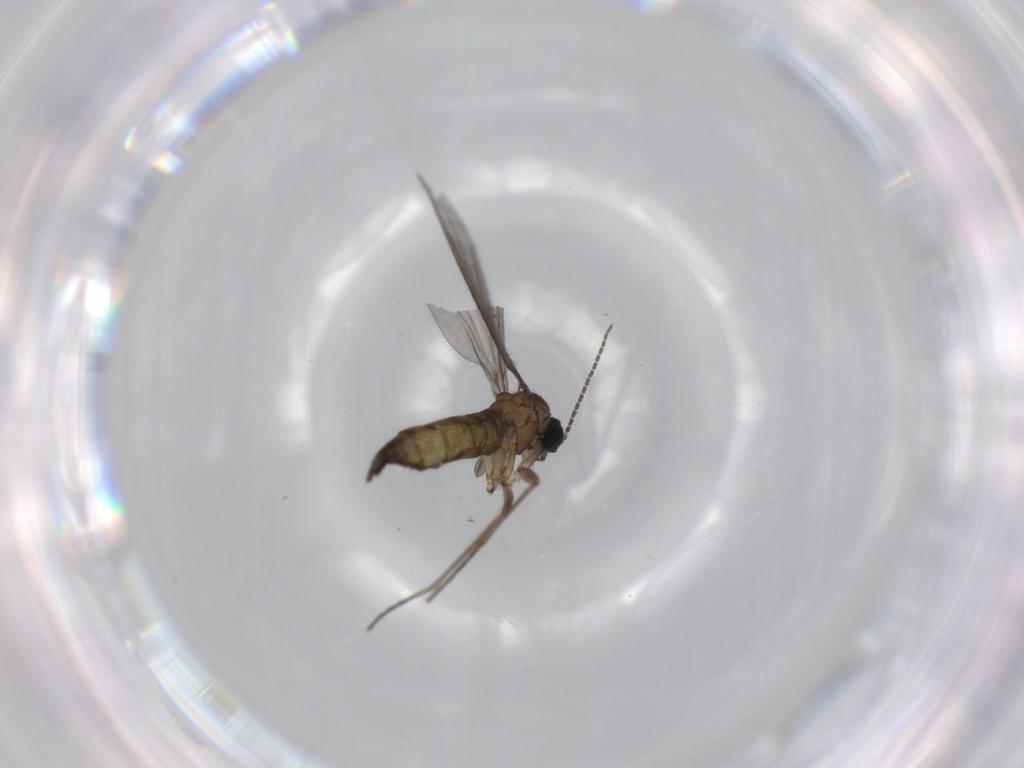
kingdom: Animalia
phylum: Arthropoda
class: Insecta
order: Diptera
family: Sciaridae
